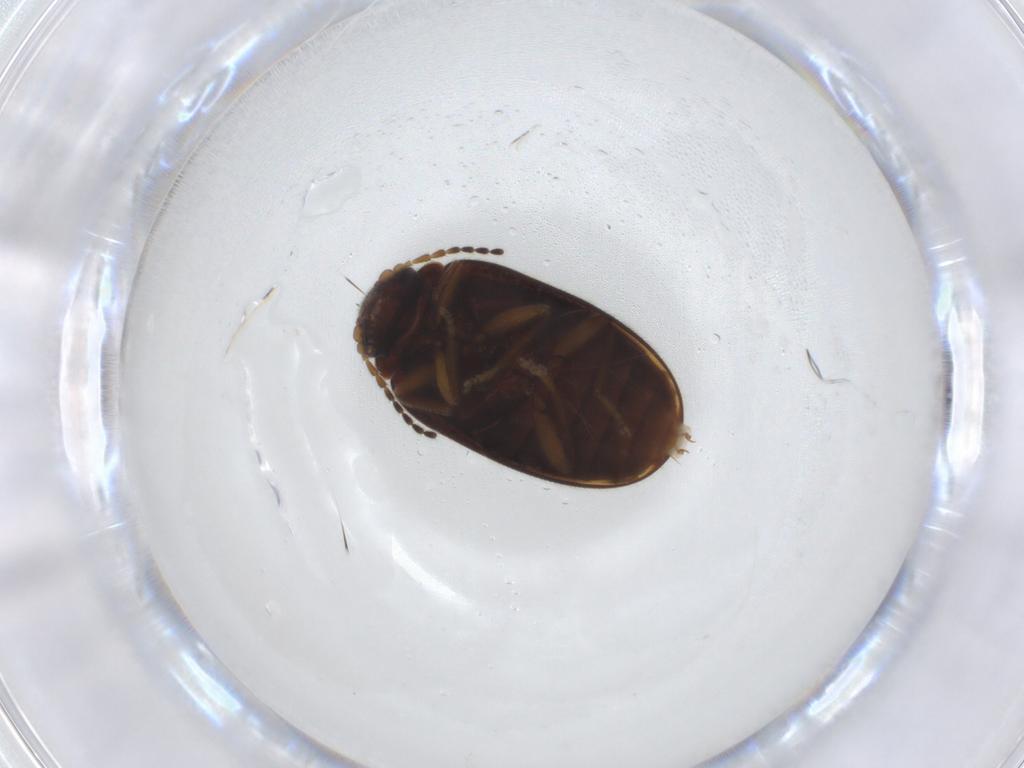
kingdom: Animalia
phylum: Arthropoda
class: Insecta
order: Coleoptera
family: Scirtidae
